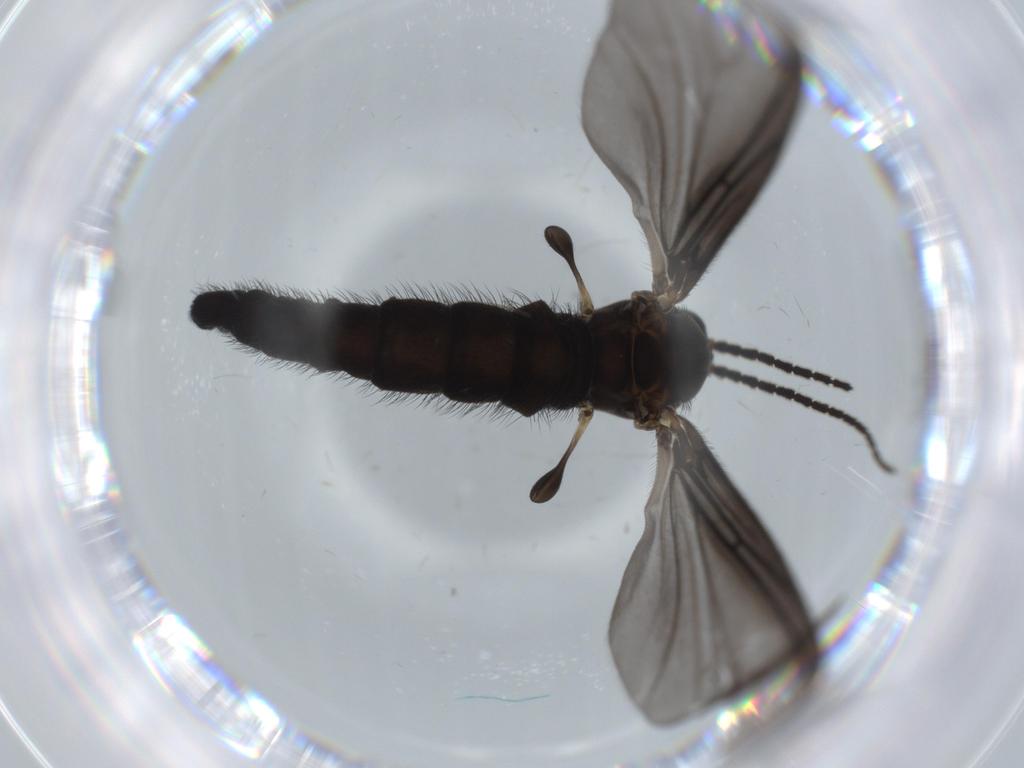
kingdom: Animalia
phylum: Arthropoda
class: Insecta
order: Diptera
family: Sciaridae
